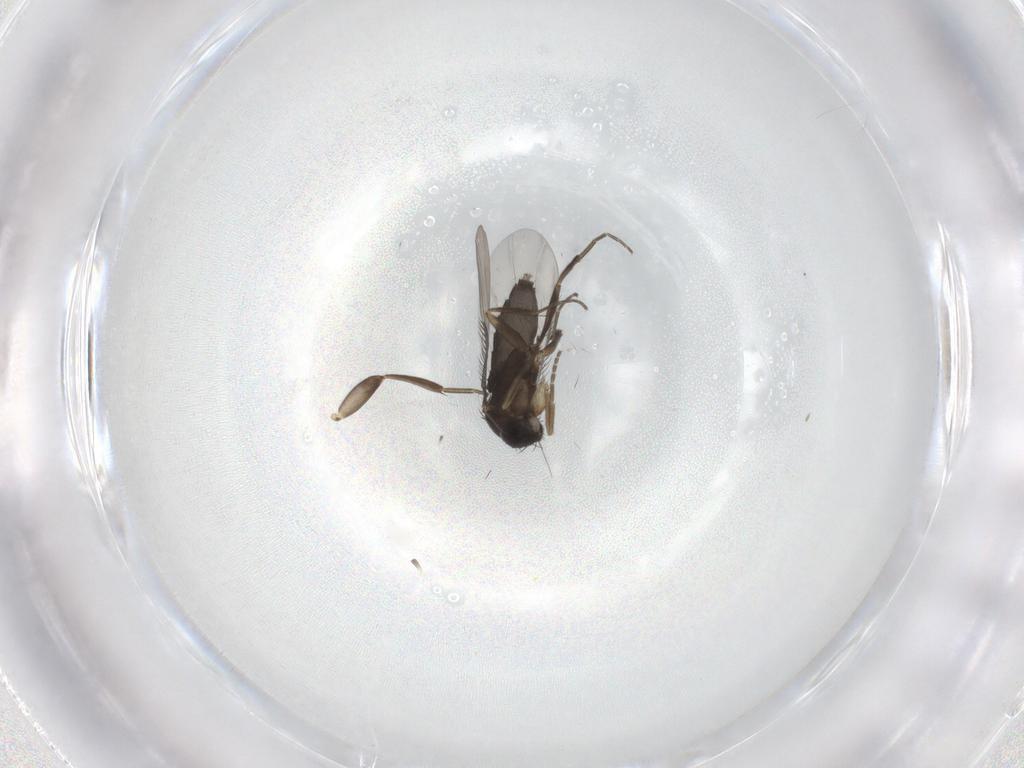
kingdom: Animalia
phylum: Arthropoda
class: Insecta
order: Diptera
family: Phoridae
